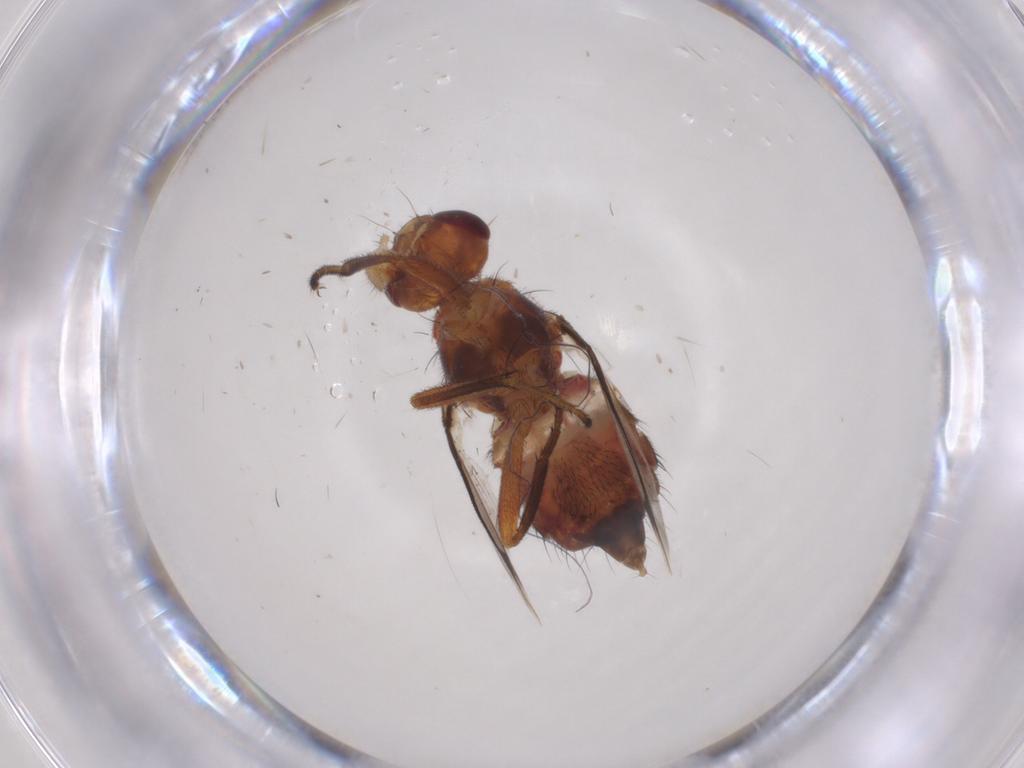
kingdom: Animalia
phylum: Arthropoda
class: Insecta
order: Diptera
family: Richardiidae
